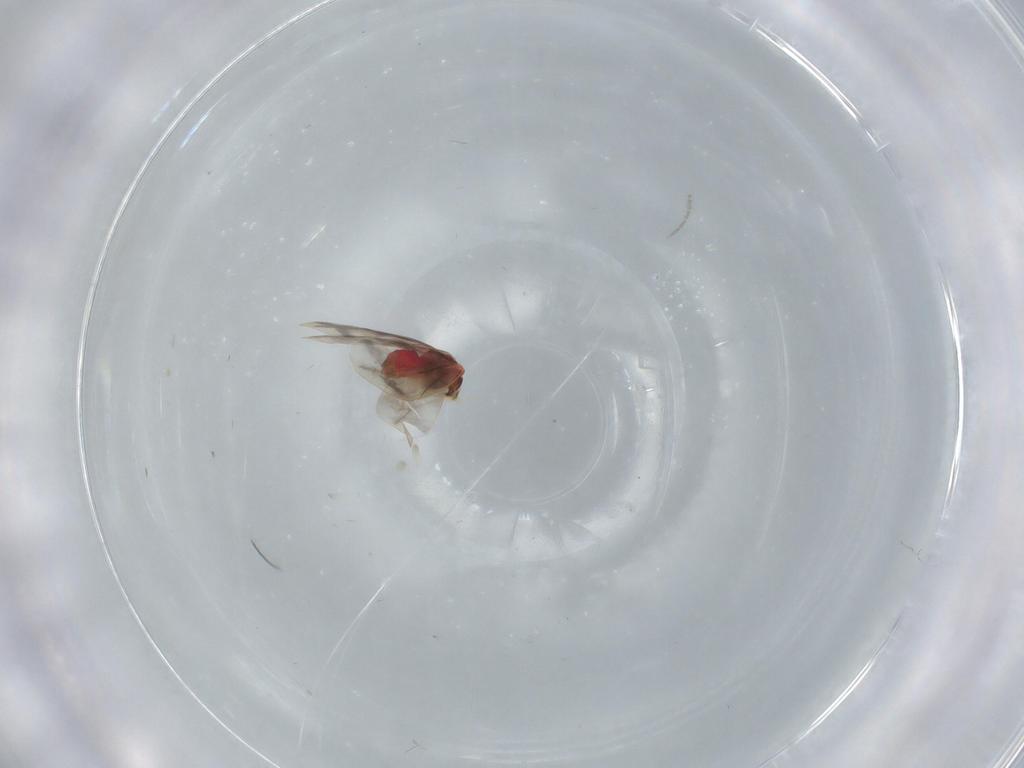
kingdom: Animalia
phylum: Arthropoda
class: Insecta
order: Hemiptera
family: Aleyrodidae
